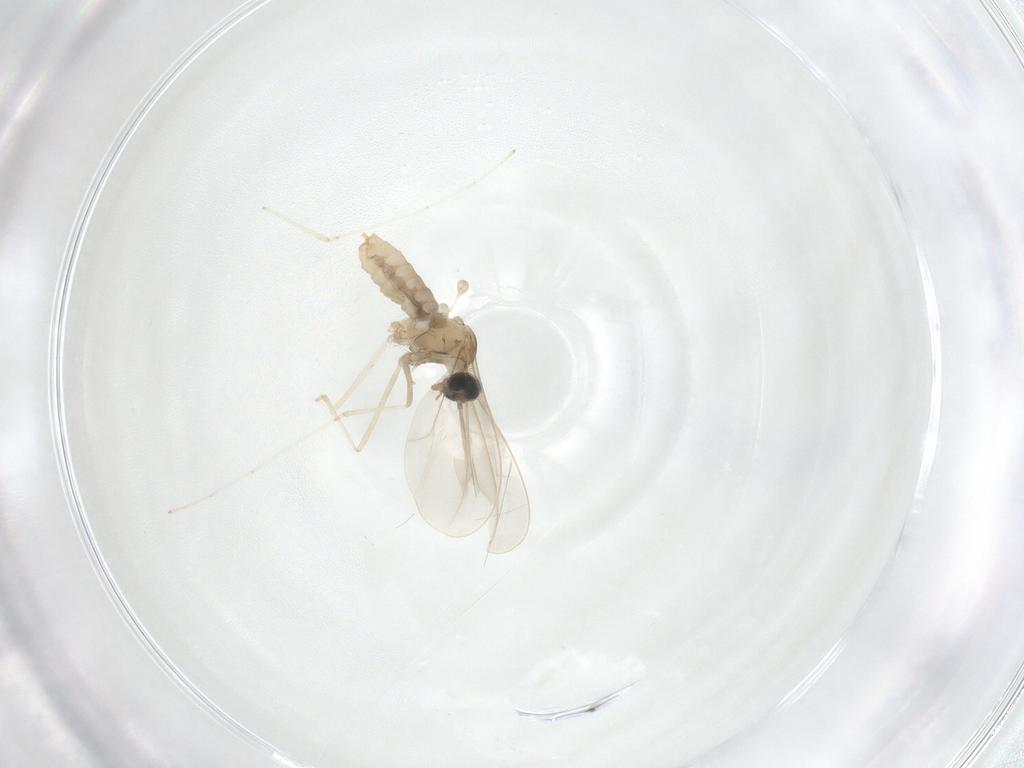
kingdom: Animalia
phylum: Arthropoda
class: Insecta
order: Diptera
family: Cecidomyiidae
